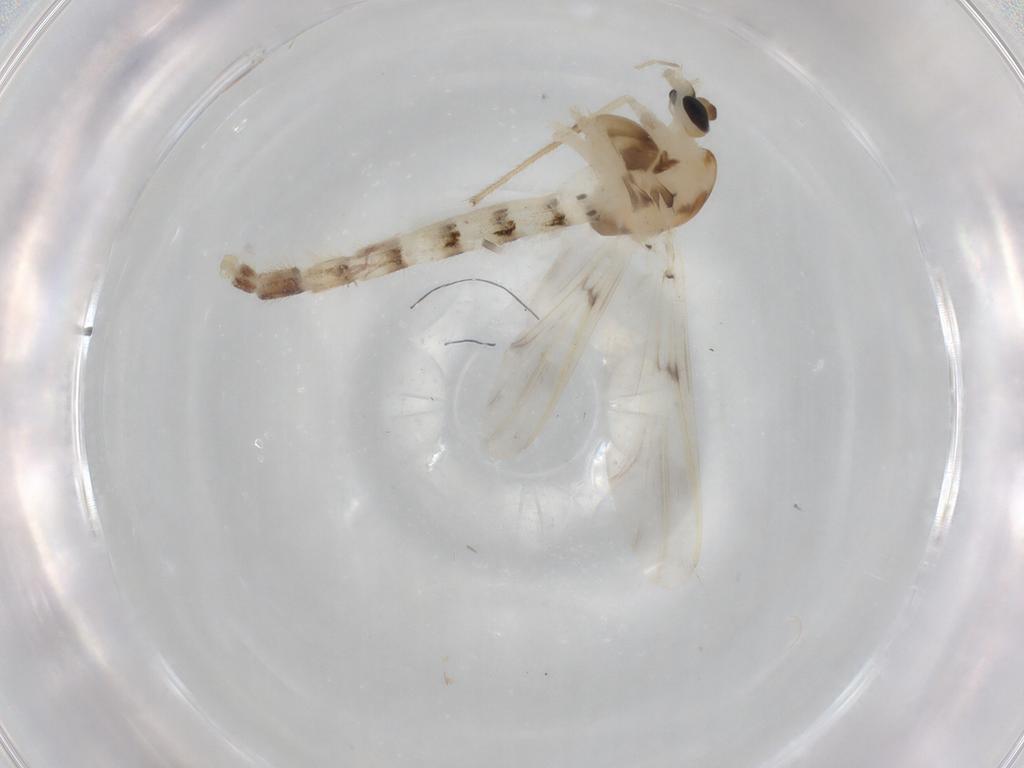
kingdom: Animalia
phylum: Arthropoda
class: Insecta
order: Diptera
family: Chironomidae
